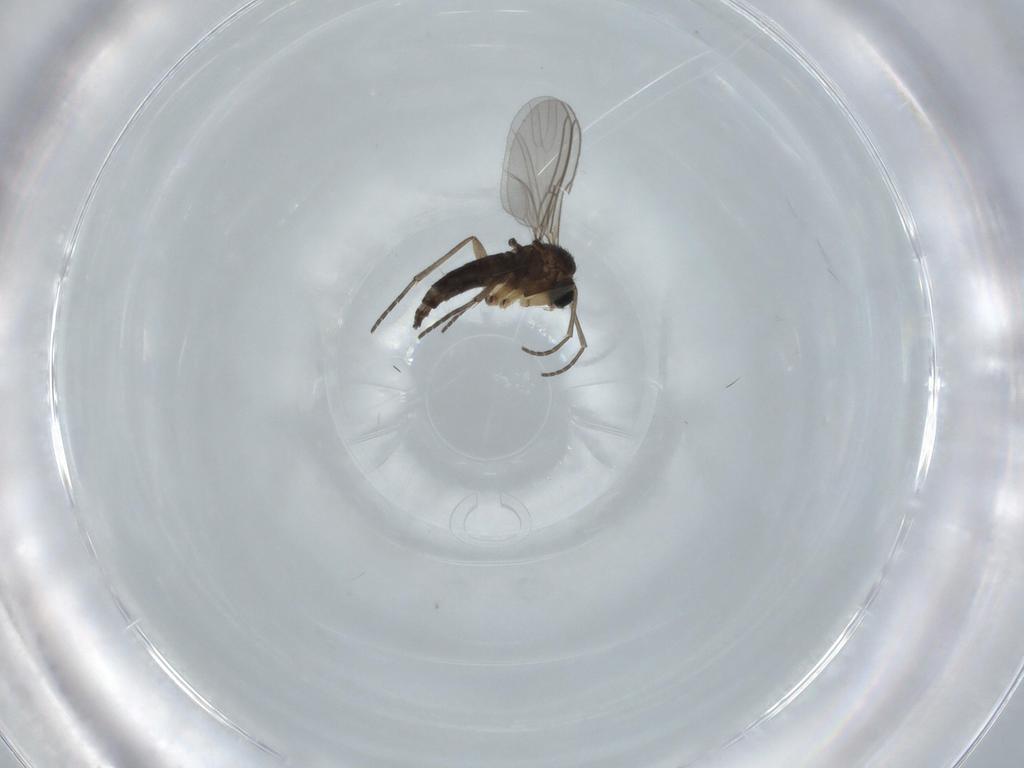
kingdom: Animalia
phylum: Arthropoda
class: Insecta
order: Diptera
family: Sciaridae
